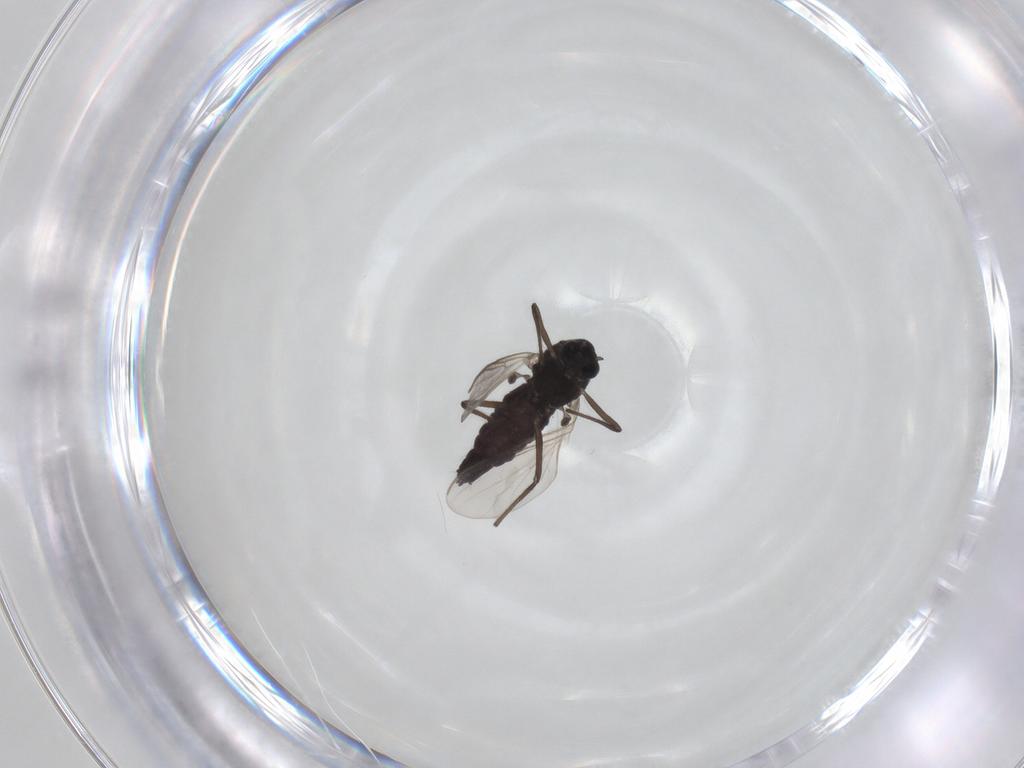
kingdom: Animalia
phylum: Arthropoda
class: Insecta
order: Diptera
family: Chironomidae
